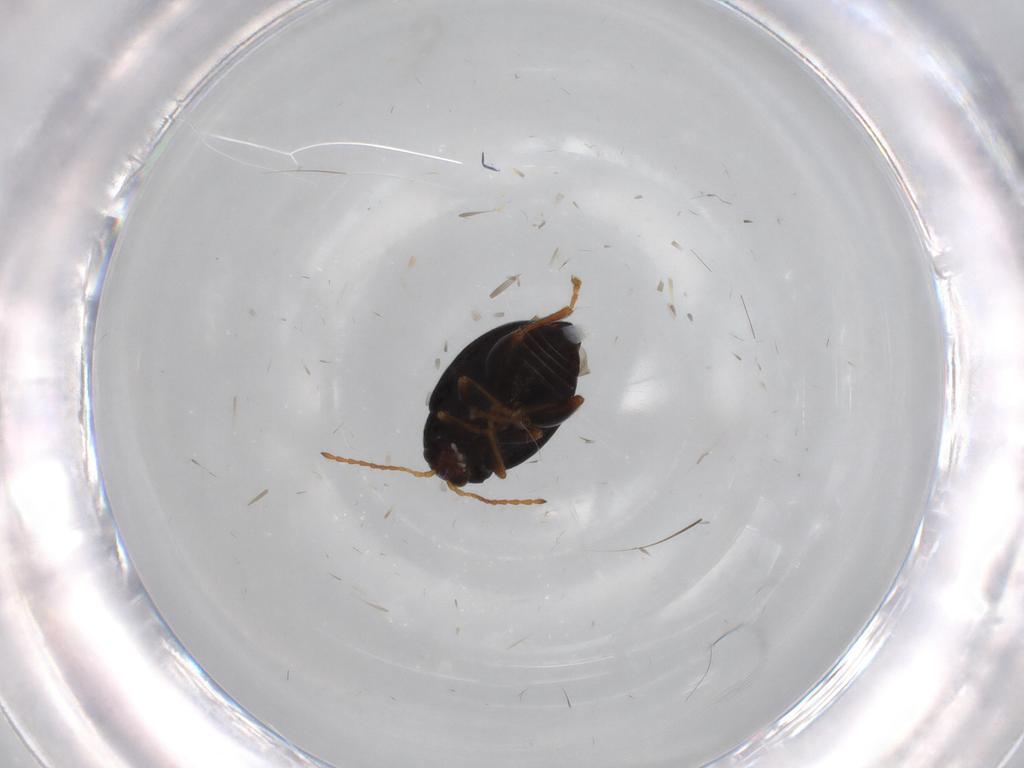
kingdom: Animalia
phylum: Arthropoda
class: Insecta
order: Coleoptera
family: Chrysomelidae
